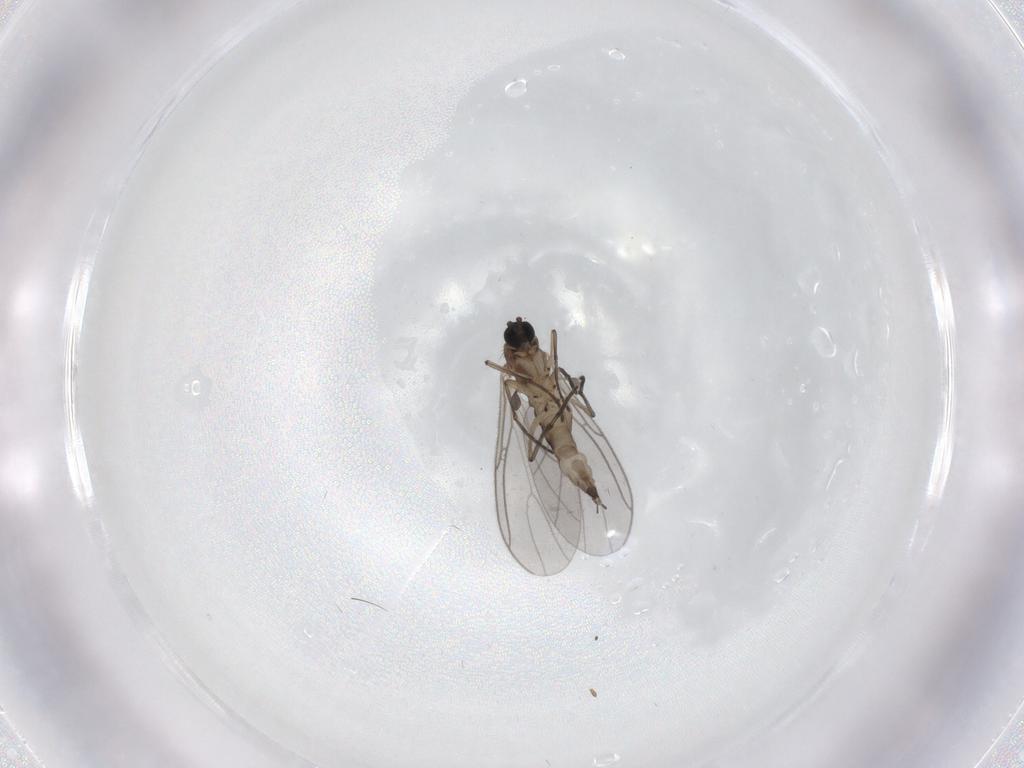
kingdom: Animalia
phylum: Arthropoda
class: Insecta
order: Diptera
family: Sciaridae
